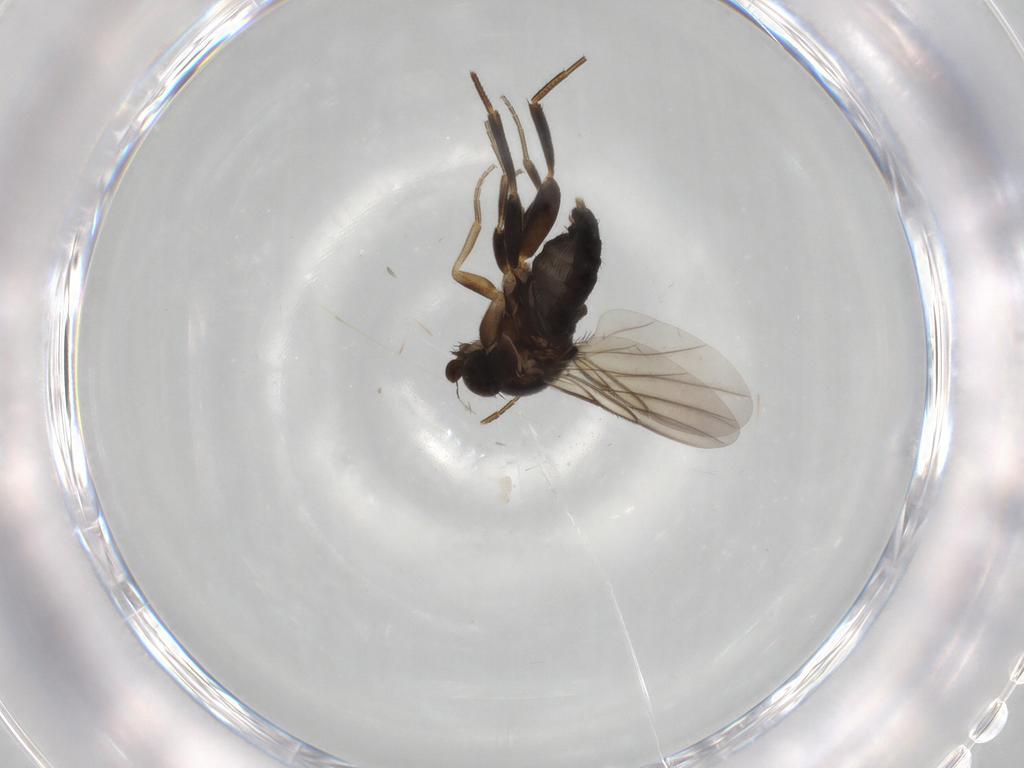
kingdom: Animalia
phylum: Arthropoda
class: Insecta
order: Diptera
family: Phoridae
